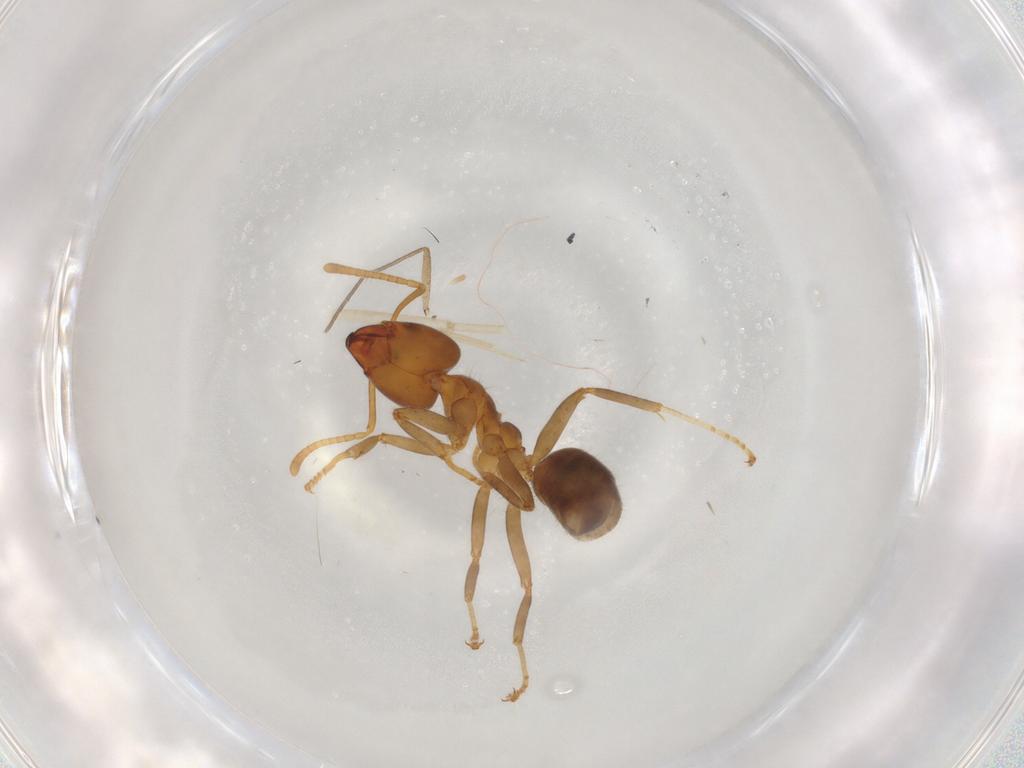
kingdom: Animalia
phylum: Arthropoda
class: Insecta
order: Hymenoptera
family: Formicidae
